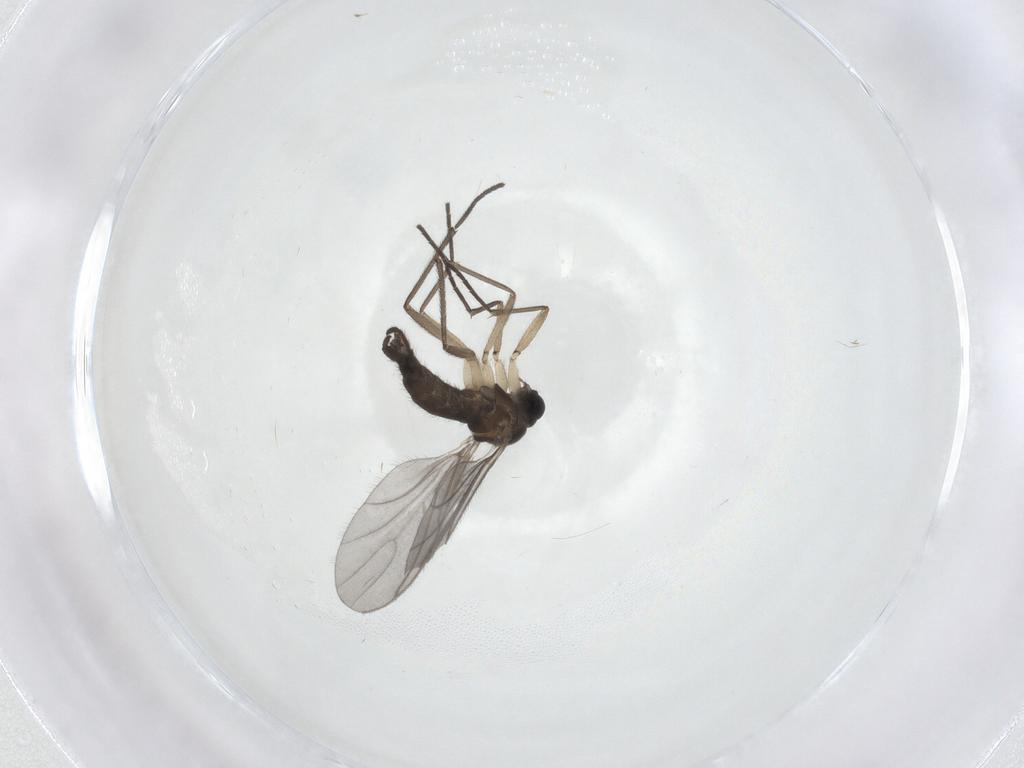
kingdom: Animalia
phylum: Arthropoda
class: Insecta
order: Diptera
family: Sciaridae
